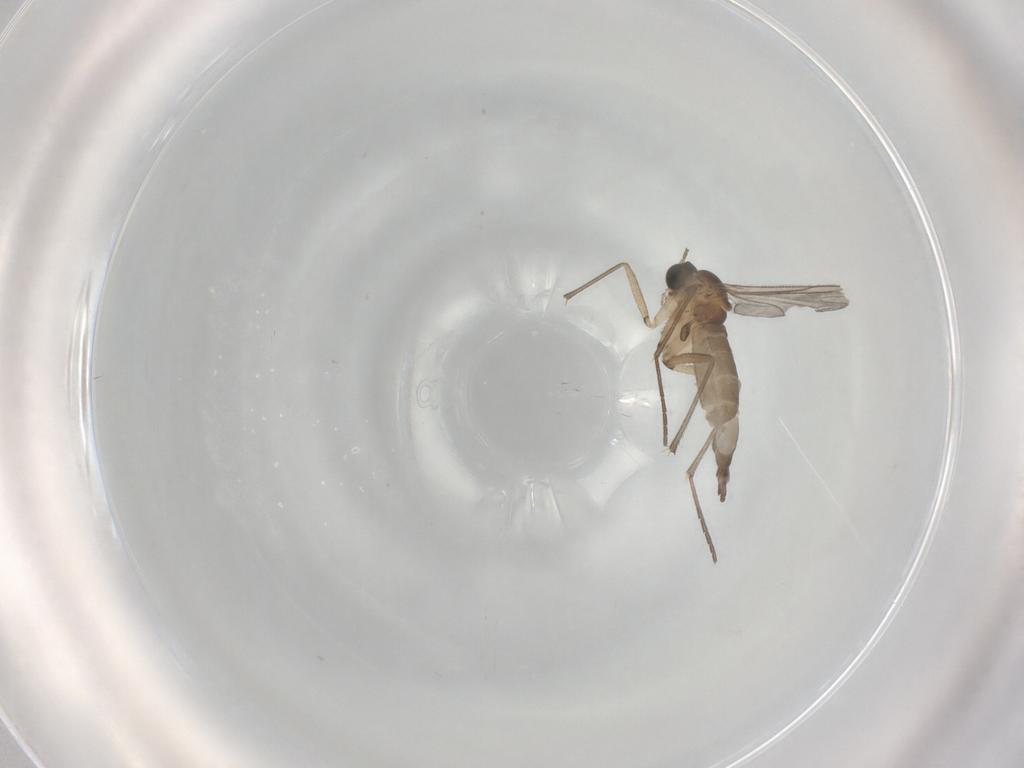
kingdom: Animalia
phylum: Arthropoda
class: Insecta
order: Diptera
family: Sciaridae
